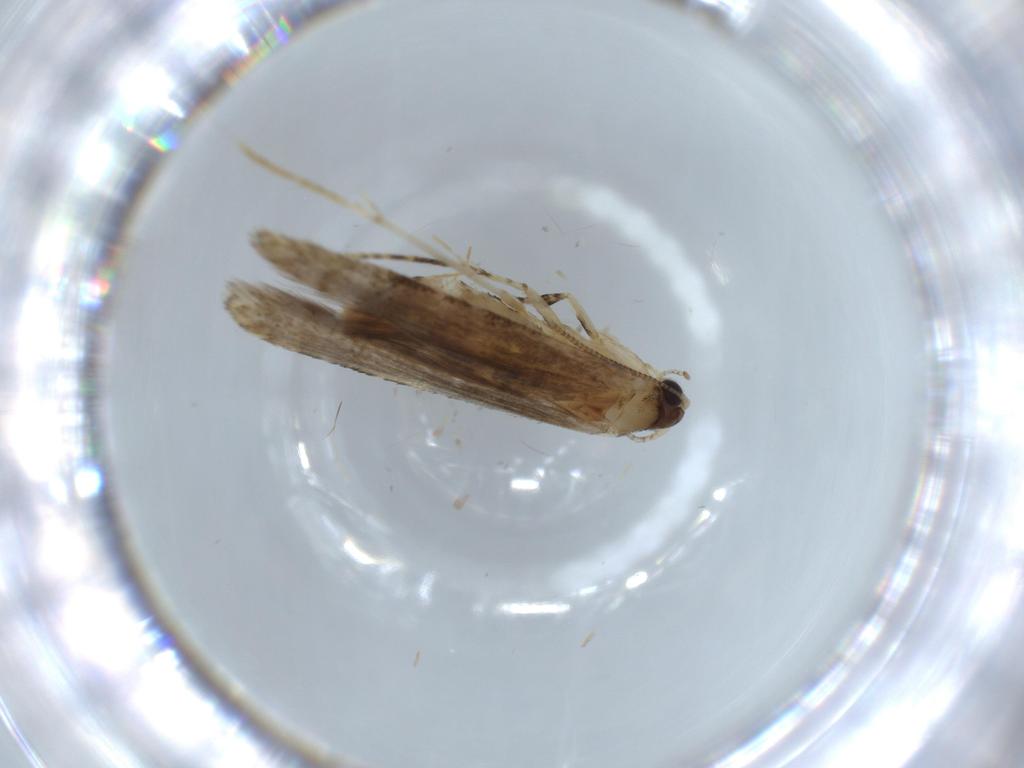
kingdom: Animalia
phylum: Arthropoda
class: Insecta
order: Lepidoptera
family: Tineidae
